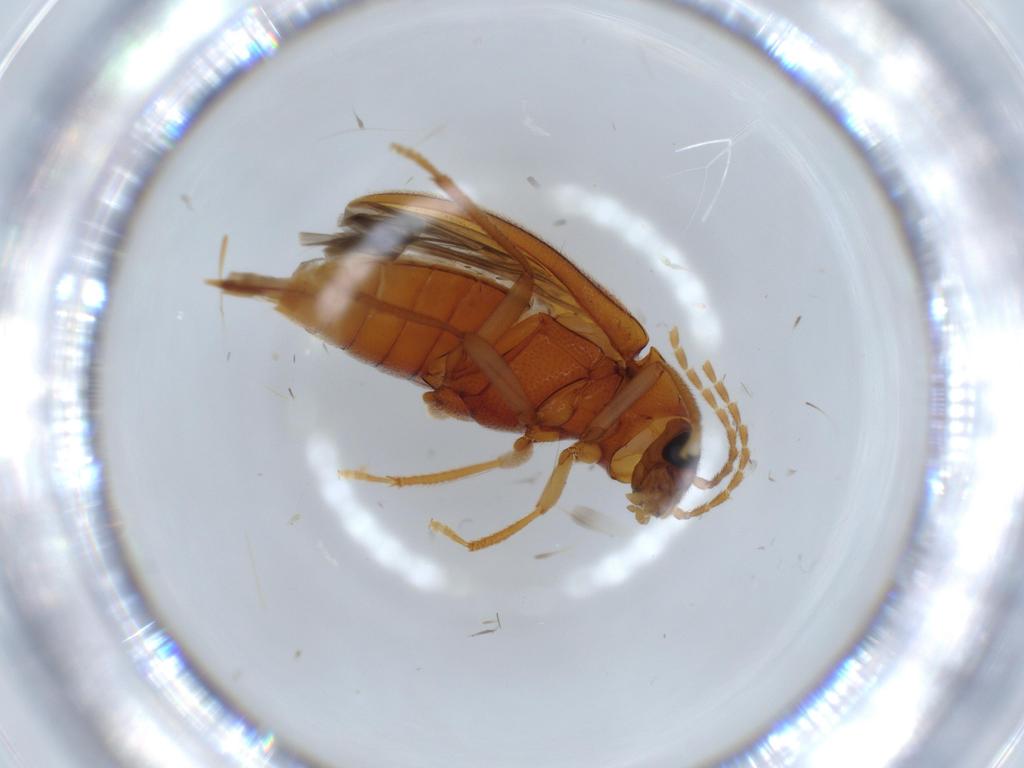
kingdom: Animalia
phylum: Arthropoda
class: Insecta
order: Coleoptera
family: Ptilodactylidae
